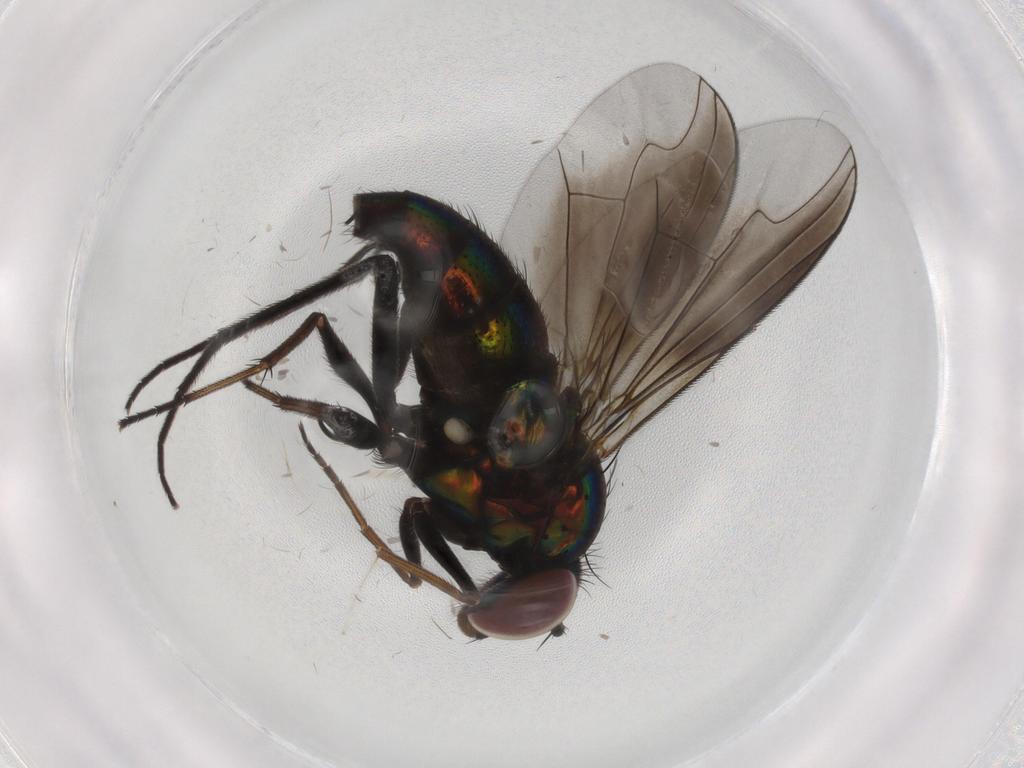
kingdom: Animalia
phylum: Arthropoda
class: Insecta
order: Diptera
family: Dolichopodidae
